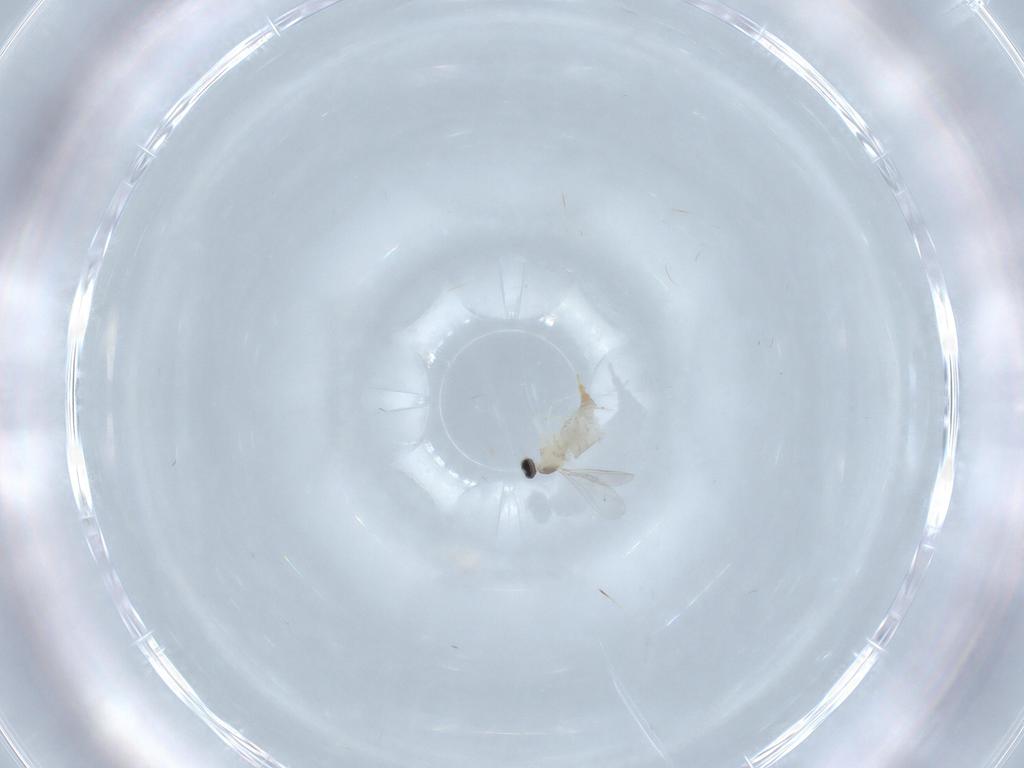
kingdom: Animalia
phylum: Arthropoda
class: Insecta
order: Diptera
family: Cecidomyiidae
